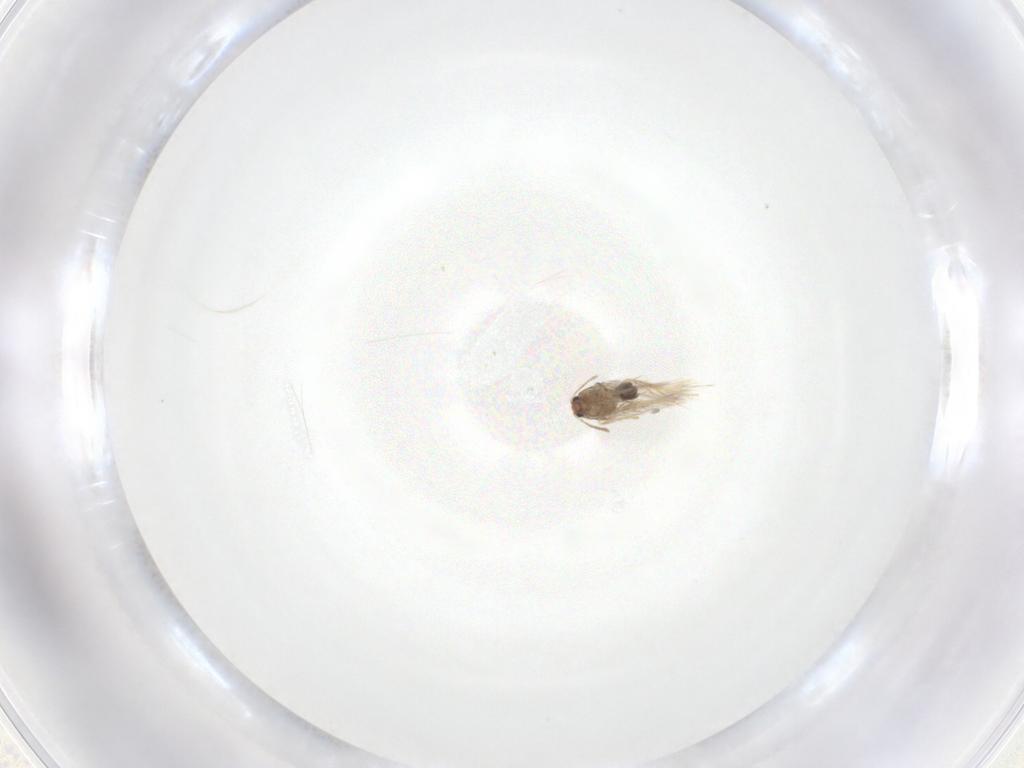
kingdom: Animalia
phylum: Arthropoda
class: Insecta
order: Lepidoptera
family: Nepticulidae
